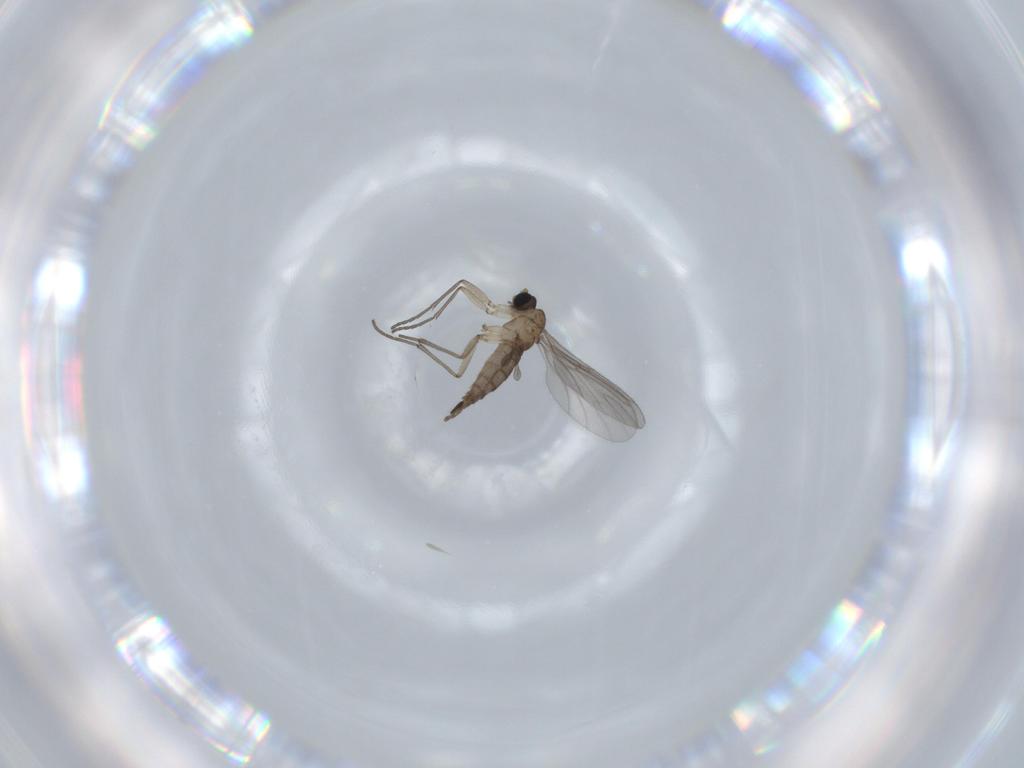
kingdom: Animalia
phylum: Arthropoda
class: Insecta
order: Diptera
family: Sciaridae
